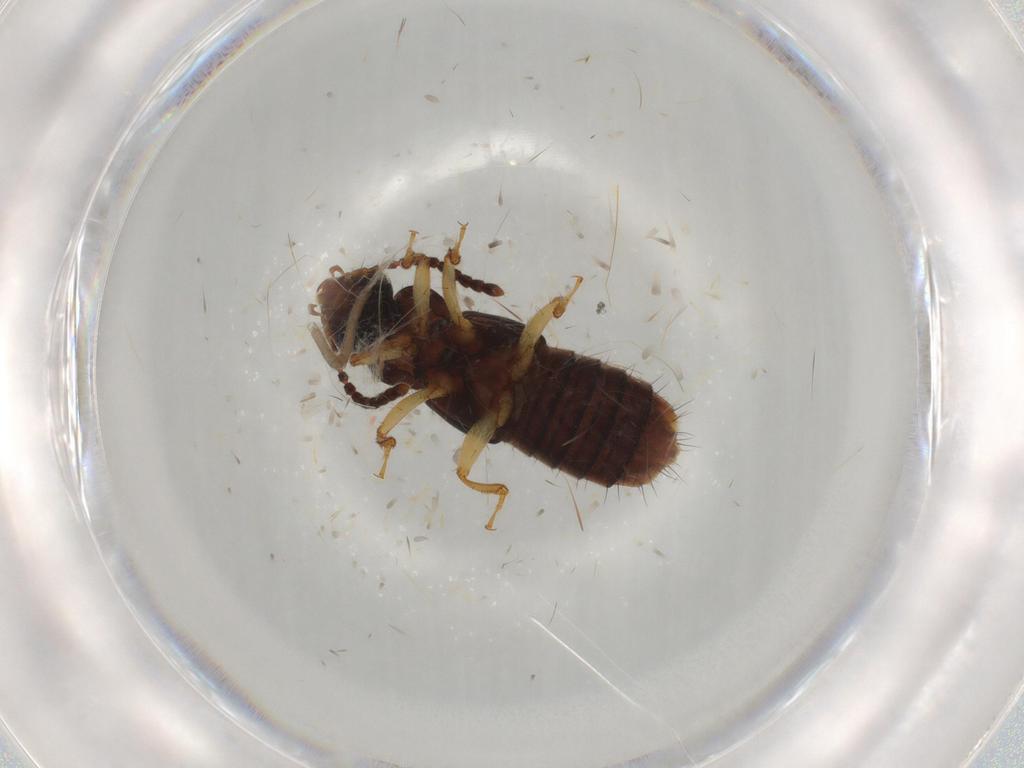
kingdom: Animalia
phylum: Arthropoda
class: Insecta
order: Coleoptera
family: Staphylinidae
